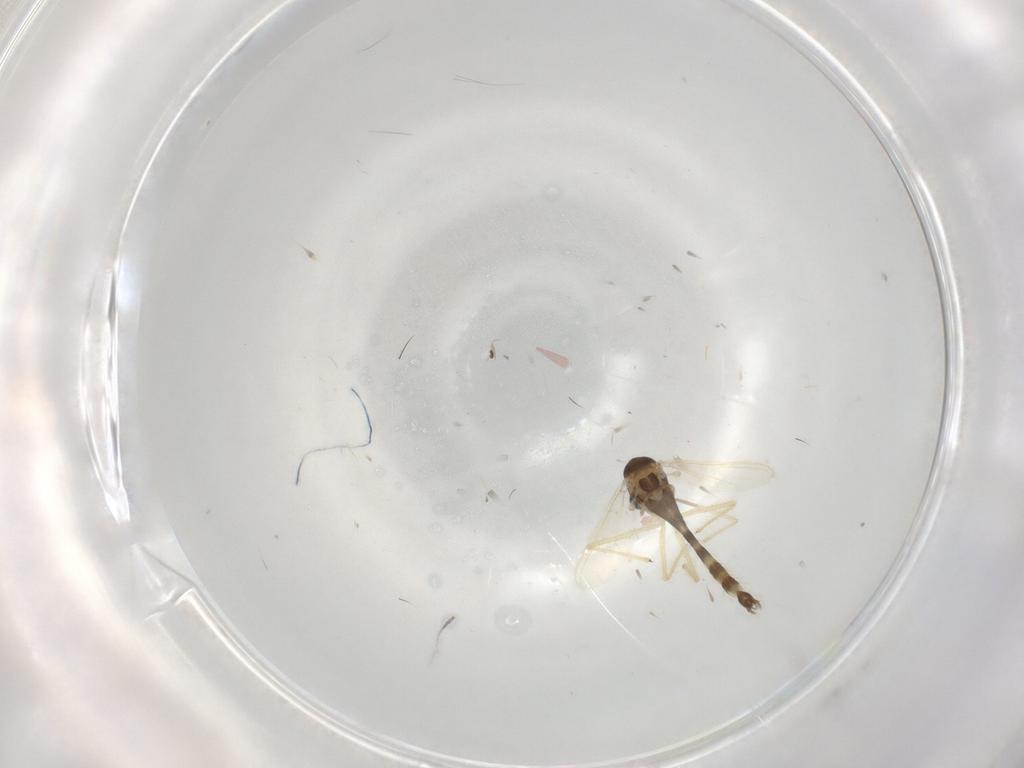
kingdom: Animalia
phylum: Arthropoda
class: Insecta
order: Diptera
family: Chironomidae
